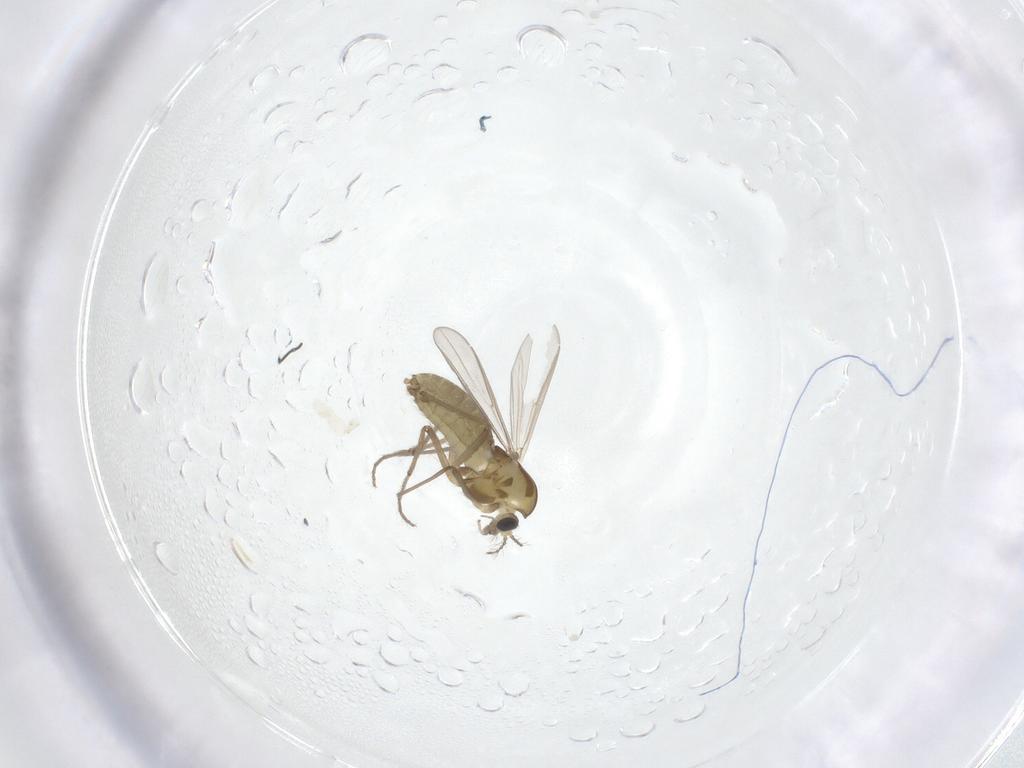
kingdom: Animalia
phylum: Arthropoda
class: Insecta
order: Diptera
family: Chironomidae
